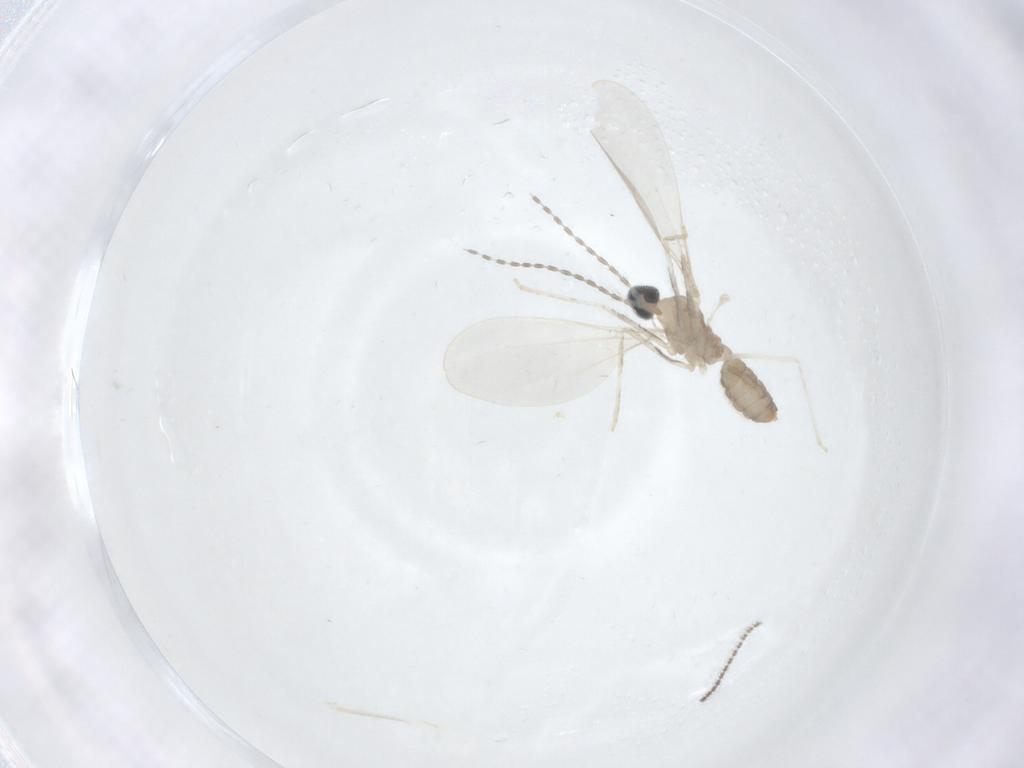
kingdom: Animalia
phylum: Arthropoda
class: Insecta
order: Diptera
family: Cecidomyiidae
